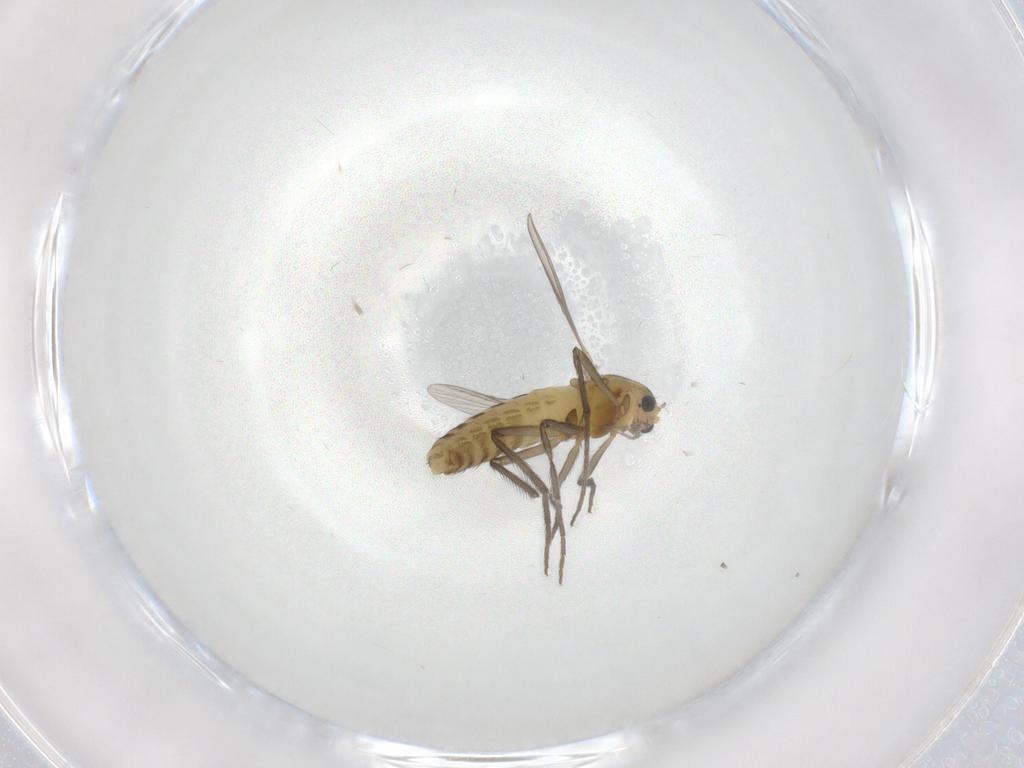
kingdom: Animalia
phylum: Arthropoda
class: Insecta
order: Diptera
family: Chironomidae
